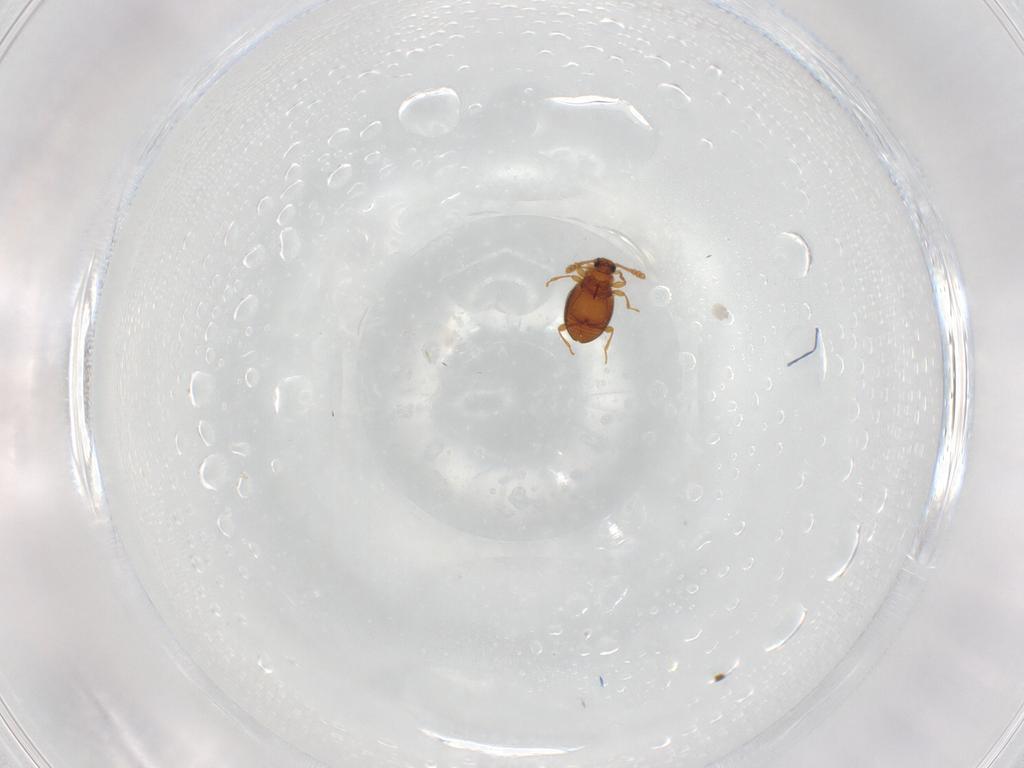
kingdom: Animalia
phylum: Arthropoda
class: Insecta
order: Coleoptera
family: Staphylinidae
